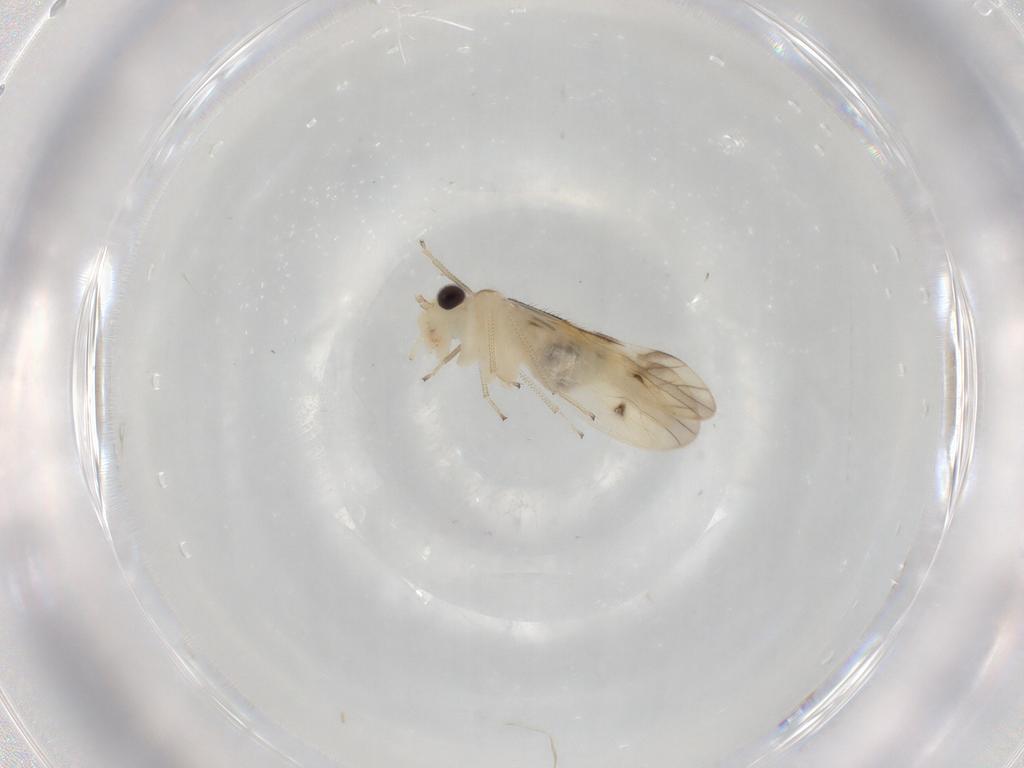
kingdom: Animalia
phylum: Arthropoda
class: Insecta
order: Psocodea
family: Caeciliusidae
